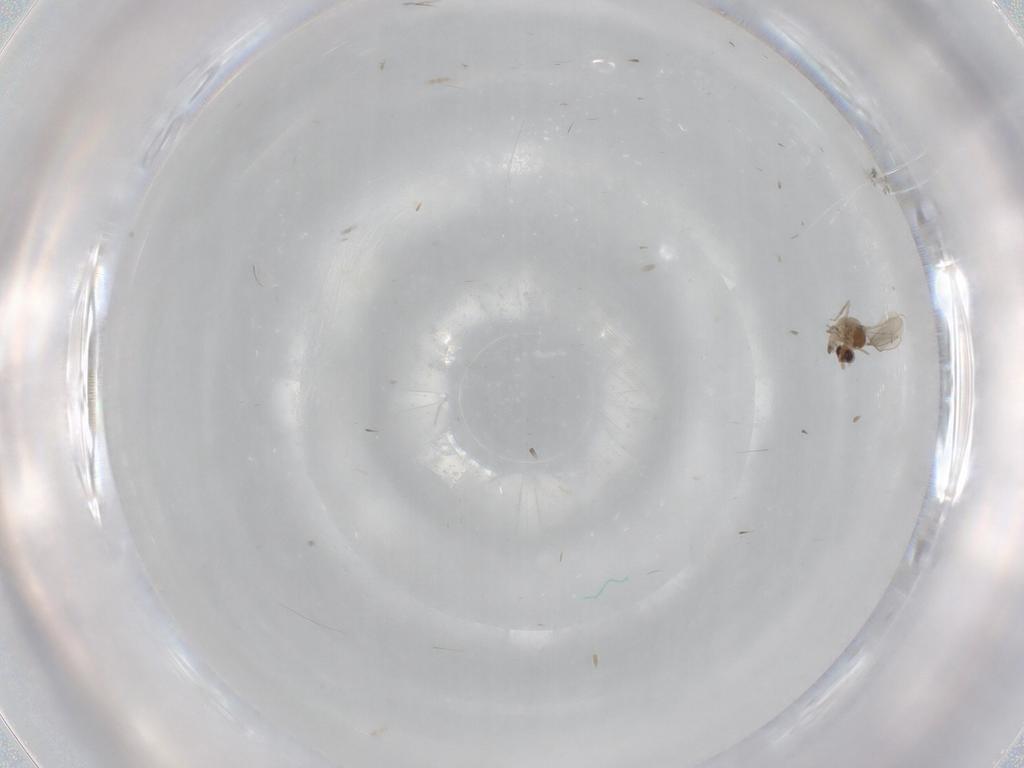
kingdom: Animalia
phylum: Arthropoda
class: Insecta
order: Diptera
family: Cecidomyiidae
